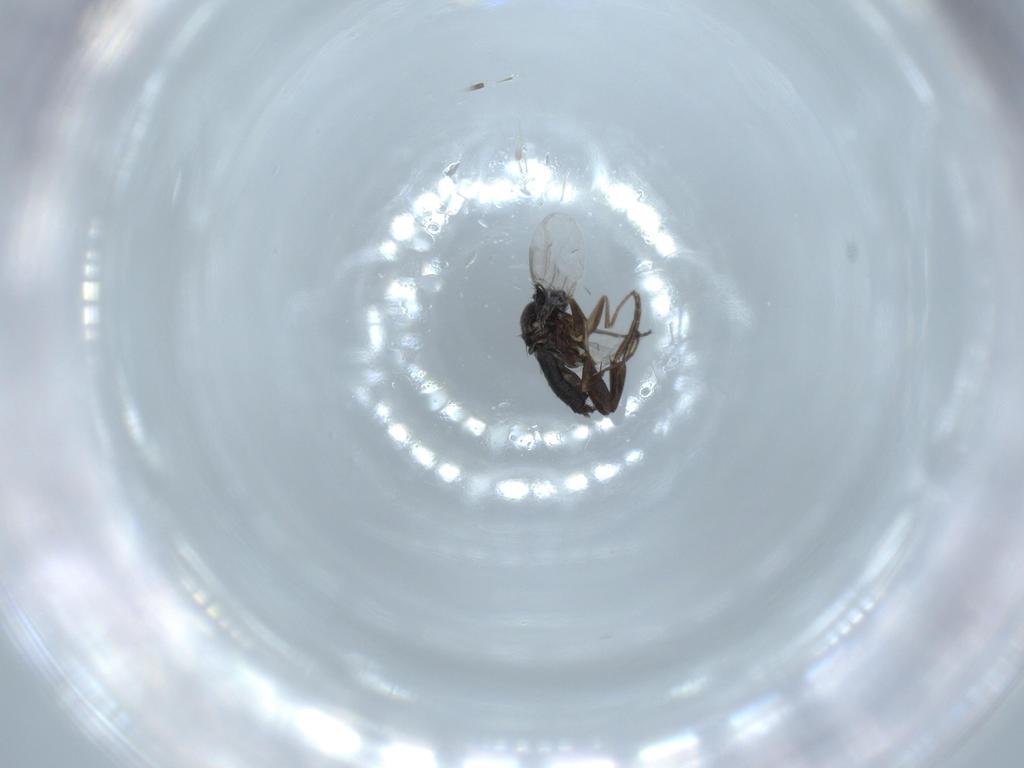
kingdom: Animalia
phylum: Arthropoda
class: Insecta
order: Diptera
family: Phoridae
